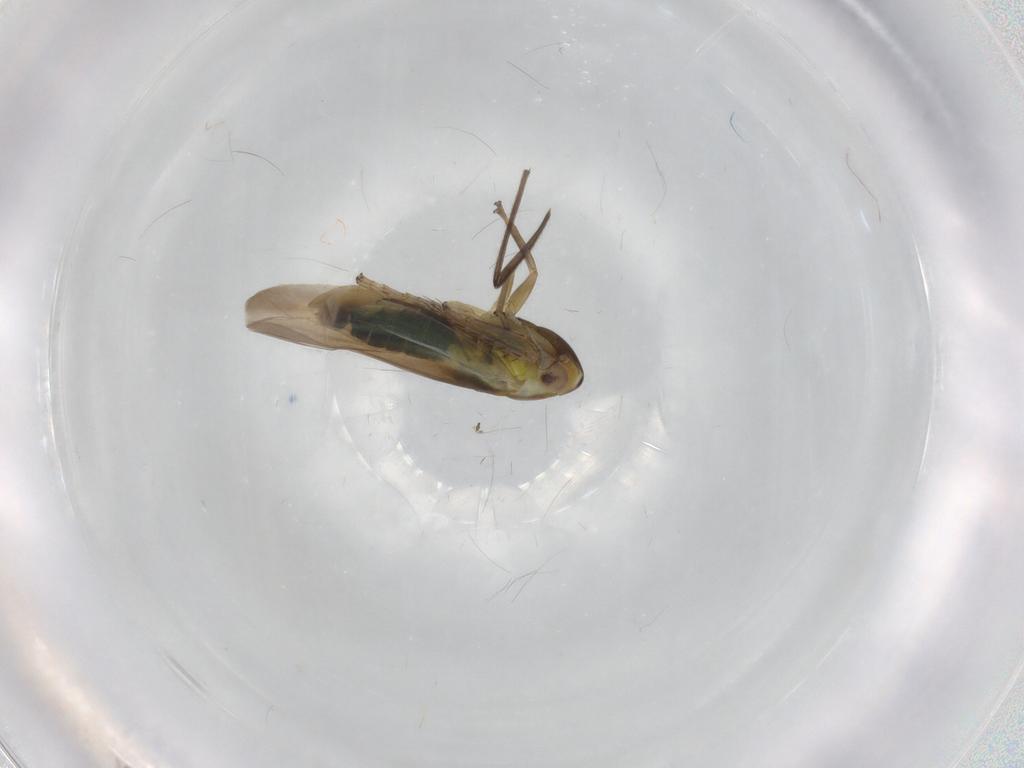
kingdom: Animalia
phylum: Arthropoda
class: Insecta
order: Hemiptera
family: Cicadellidae
